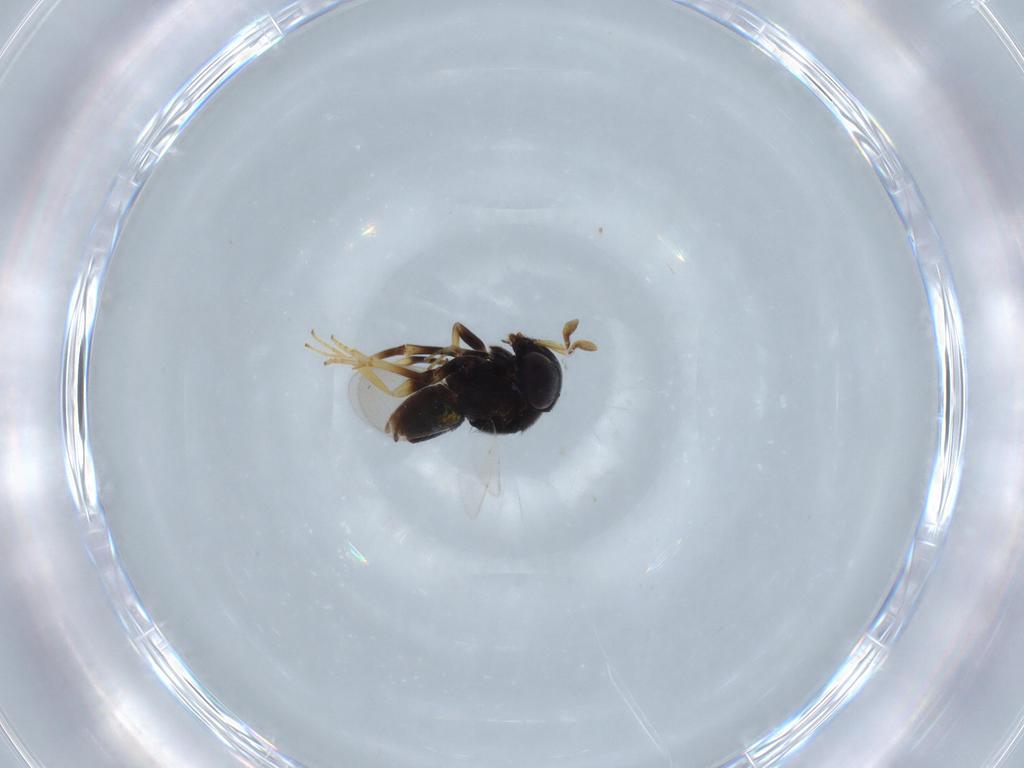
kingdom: Animalia
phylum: Arthropoda
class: Insecta
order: Hymenoptera
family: Encyrtidae
